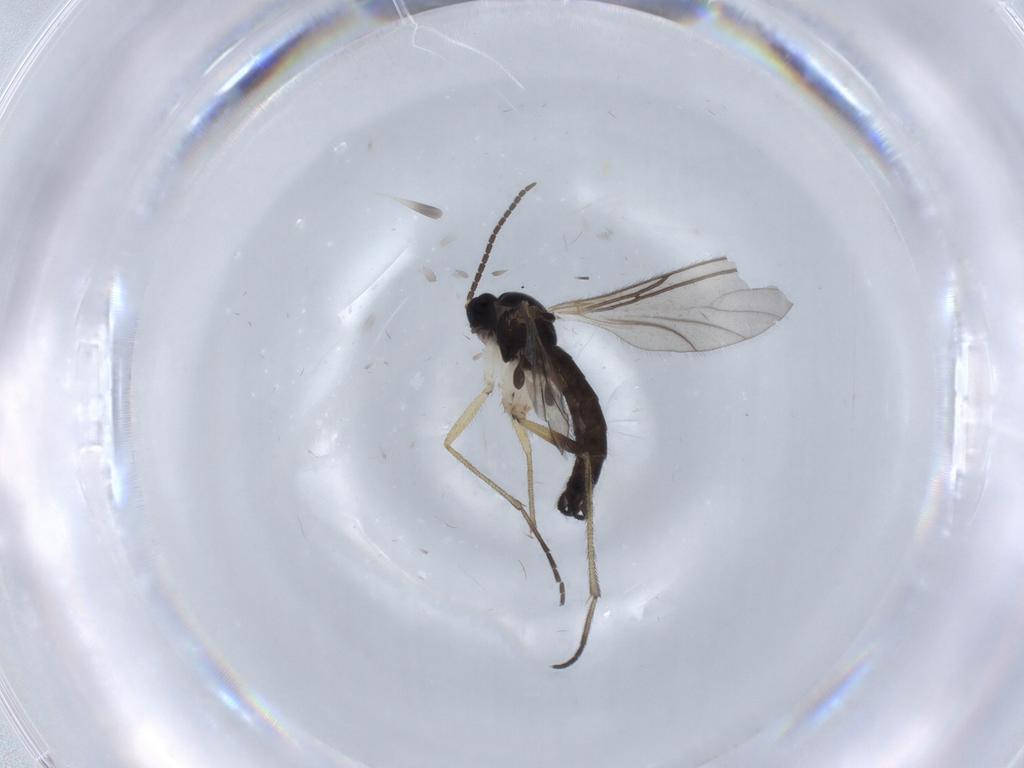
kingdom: Animalia
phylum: Arthropoda
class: Insecta
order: Diptera
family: Sciaridae
